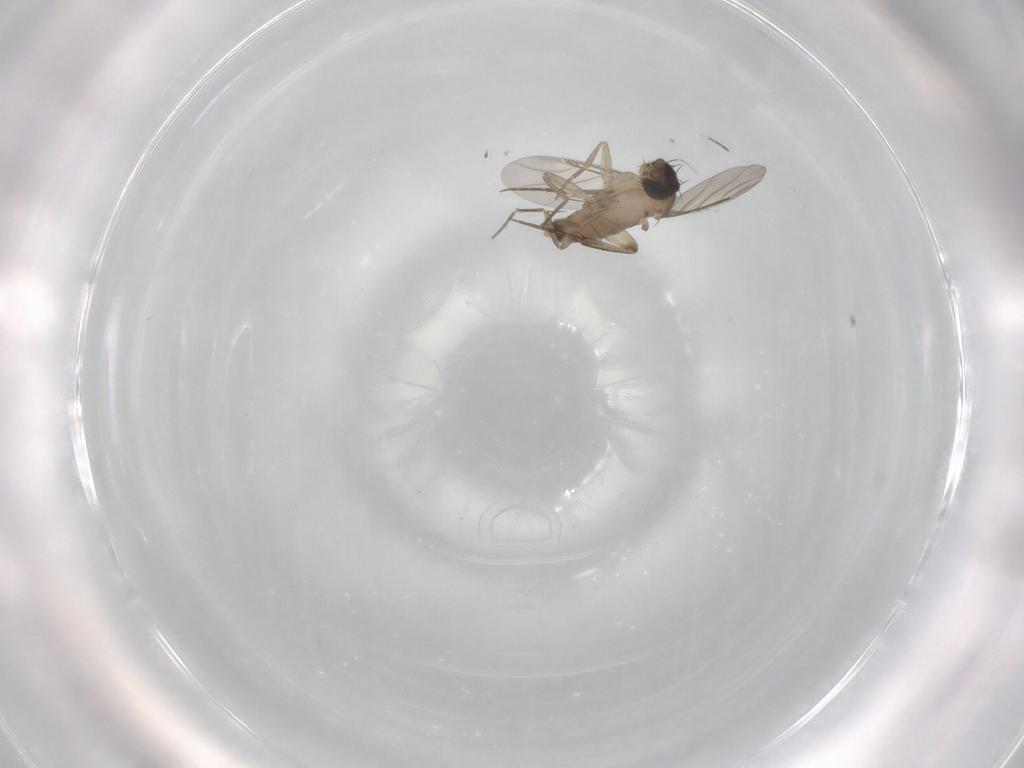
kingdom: Animalia
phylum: Arthropoda
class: Insecta
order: Diptera
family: Phoridae
